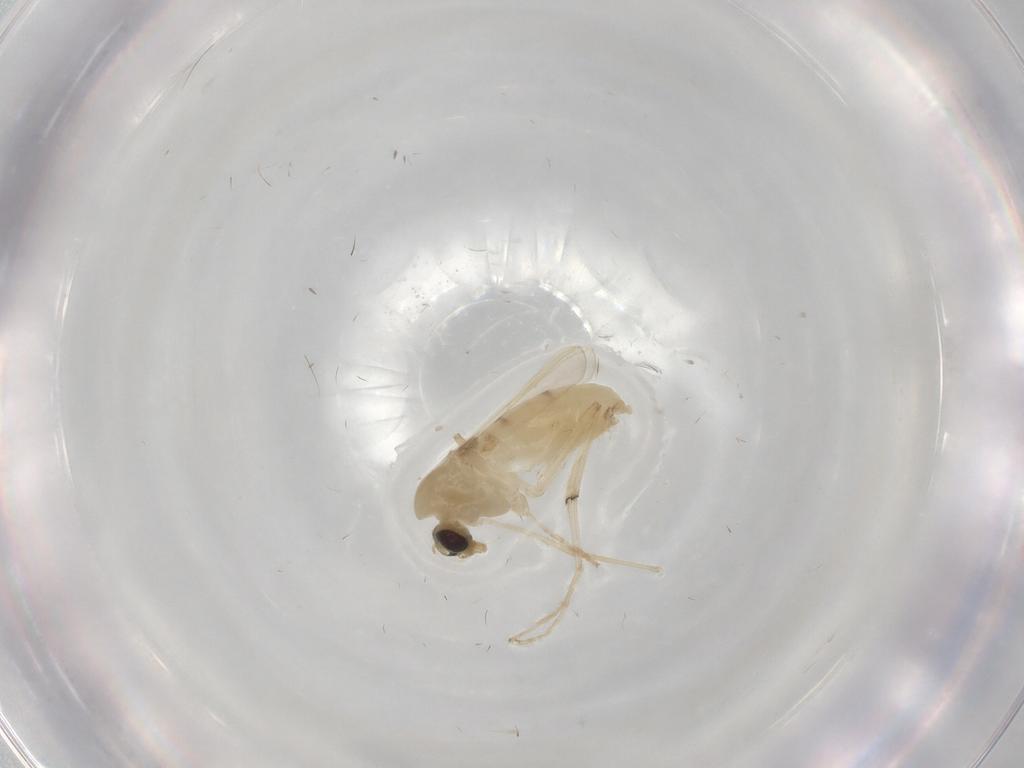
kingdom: Animalia
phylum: Arthropoda
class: Insecta
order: Diptera
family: Chironomidae
